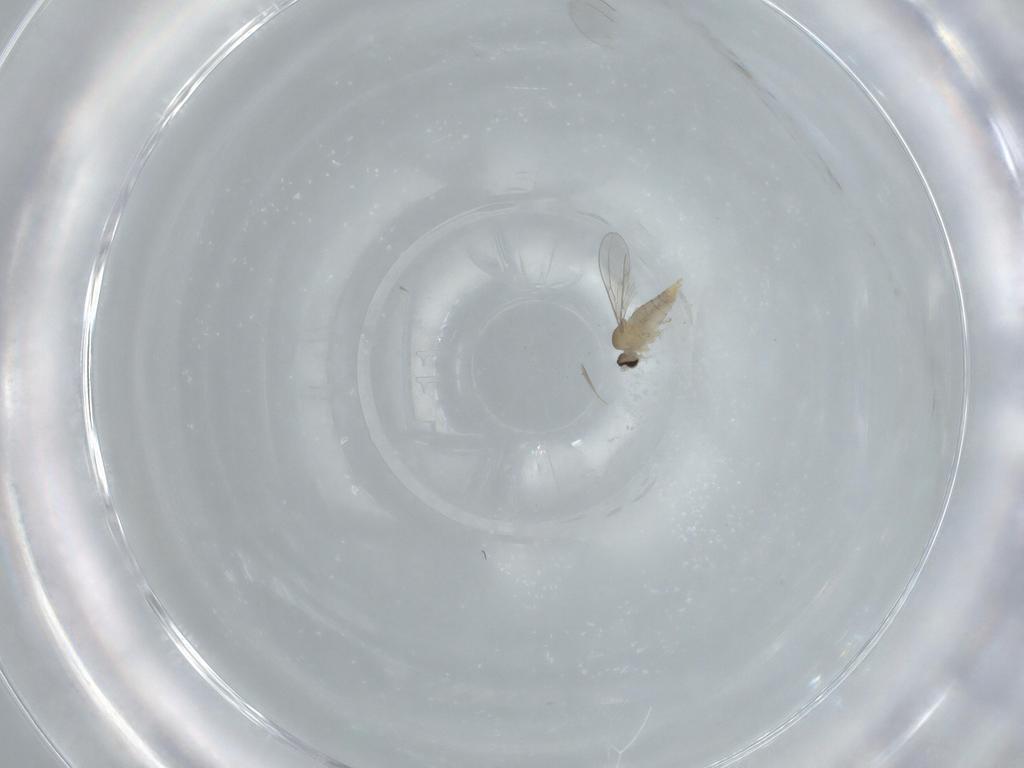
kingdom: Animalia
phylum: Arthropoda
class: Insecta
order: Diptera
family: Cecidomyiidae
